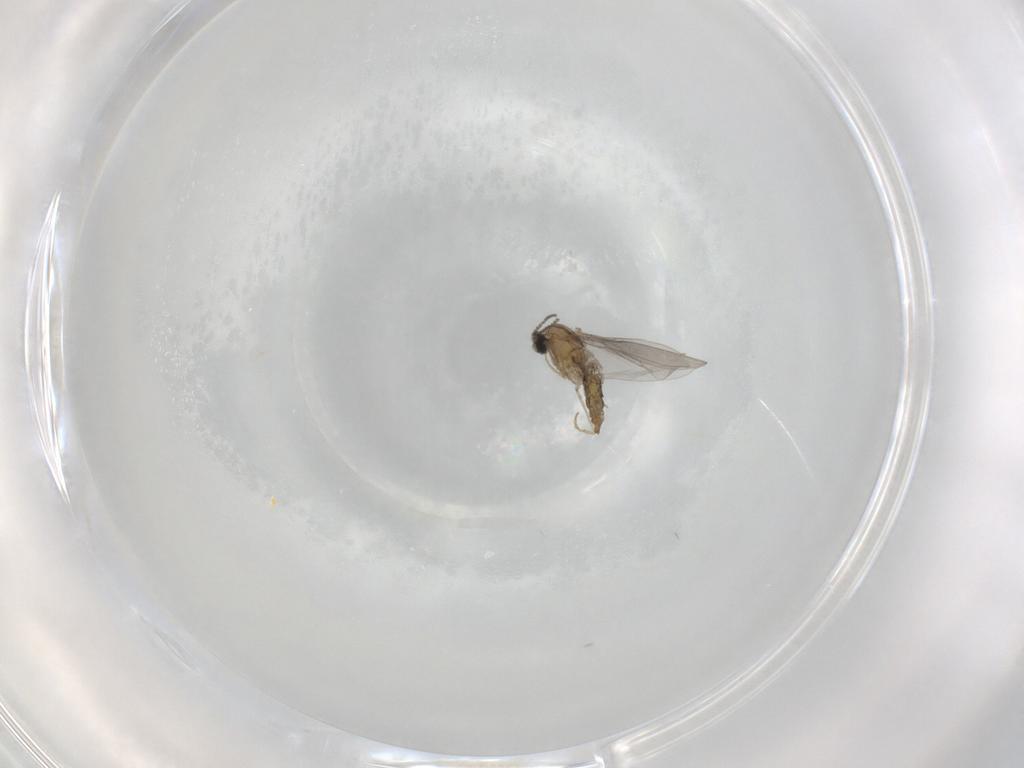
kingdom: Animalia
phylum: Arthropoda
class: Insecta
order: Diptera
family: Cecidomyiidae
